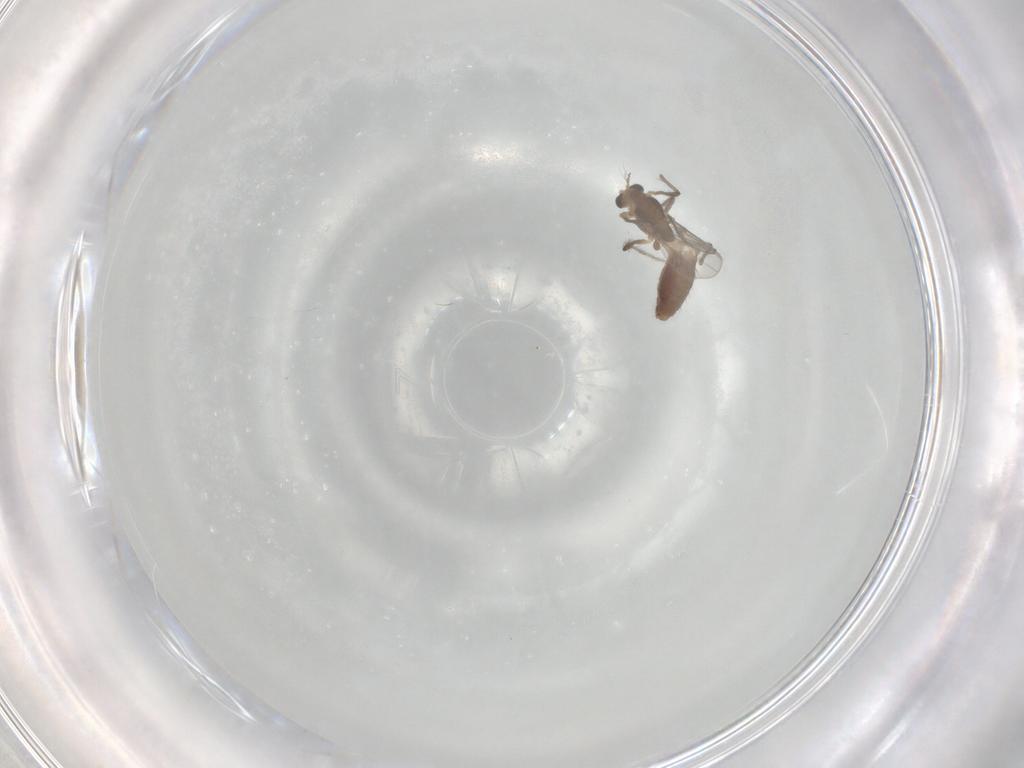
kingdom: Animalia
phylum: Arthropoda
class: Insecta
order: Diptera
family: Chironomidae
